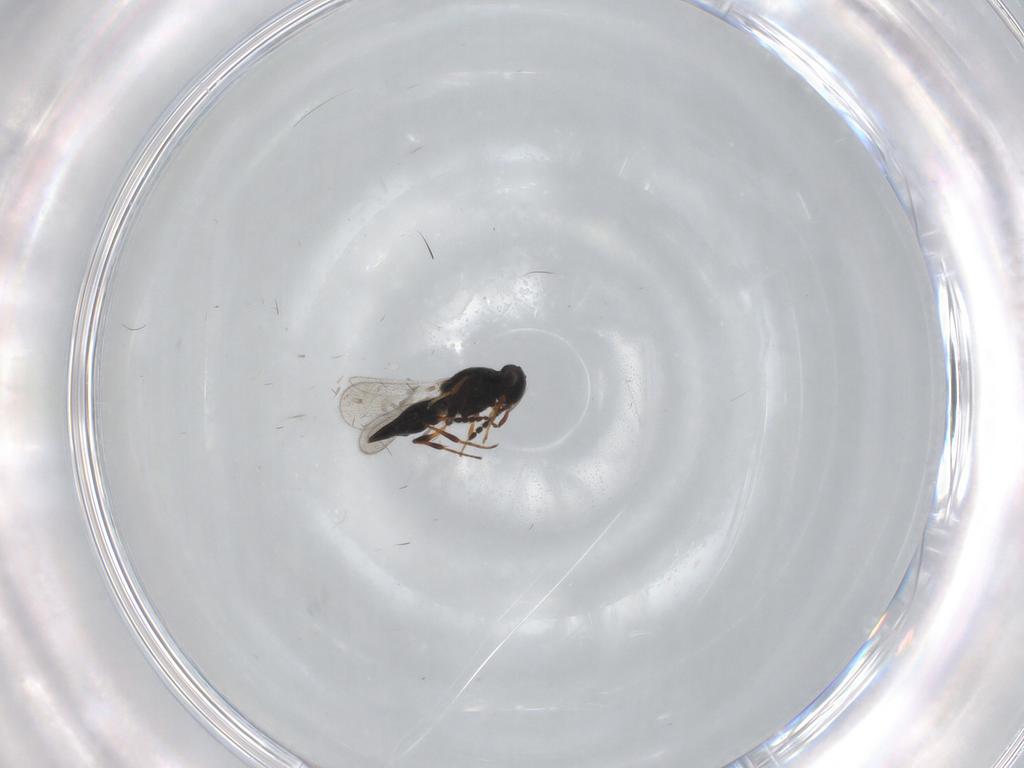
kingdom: Animalia
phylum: Arthropoda
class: Insecta
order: Hymenoptera
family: Platygastridae
